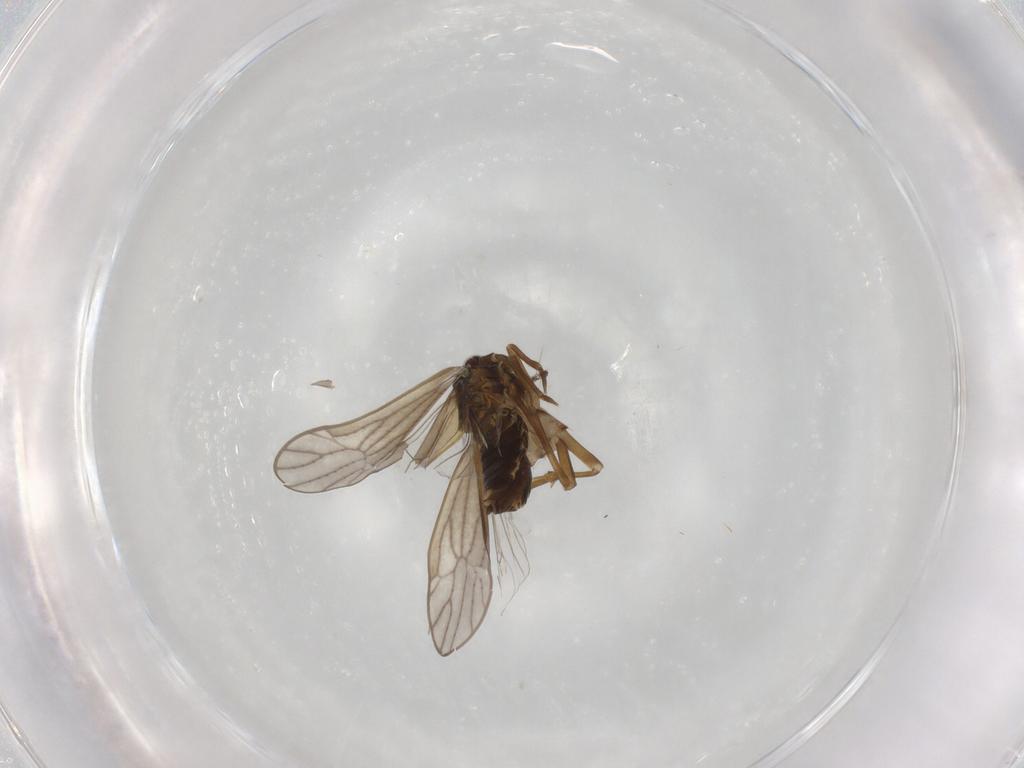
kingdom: Animalia
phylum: Arthropoda
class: Insecta
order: Hemiptera
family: Delphacidae
